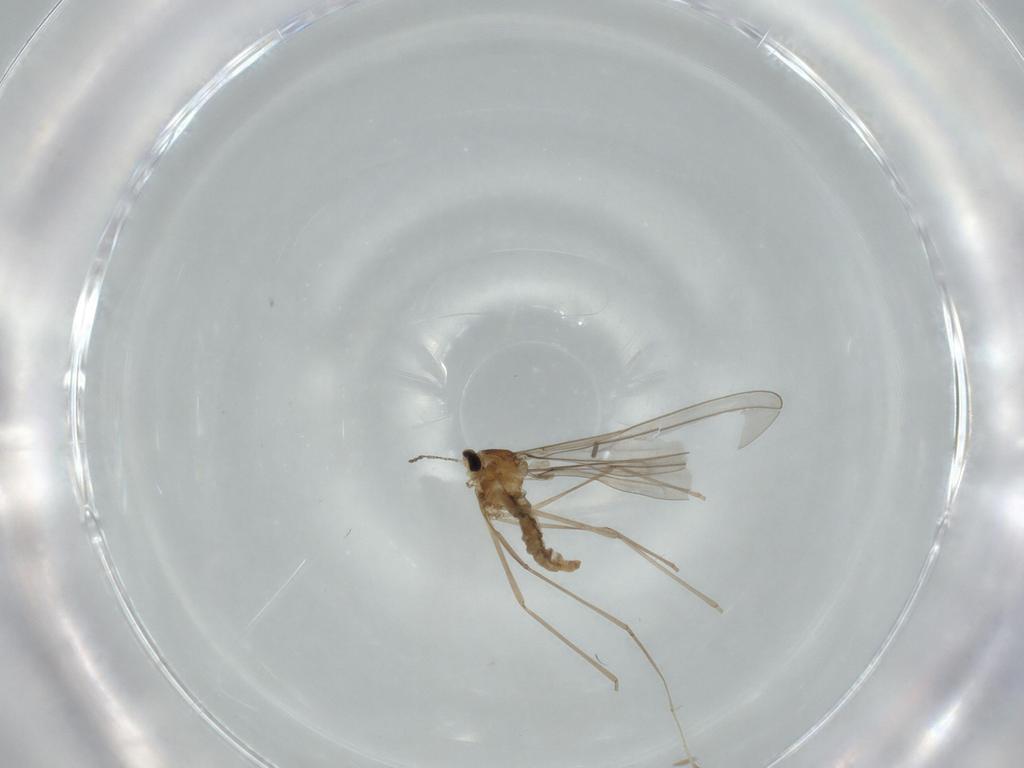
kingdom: Animalia
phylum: Arthropoda
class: Insecta
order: Diptera
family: Cecidomyiidae
